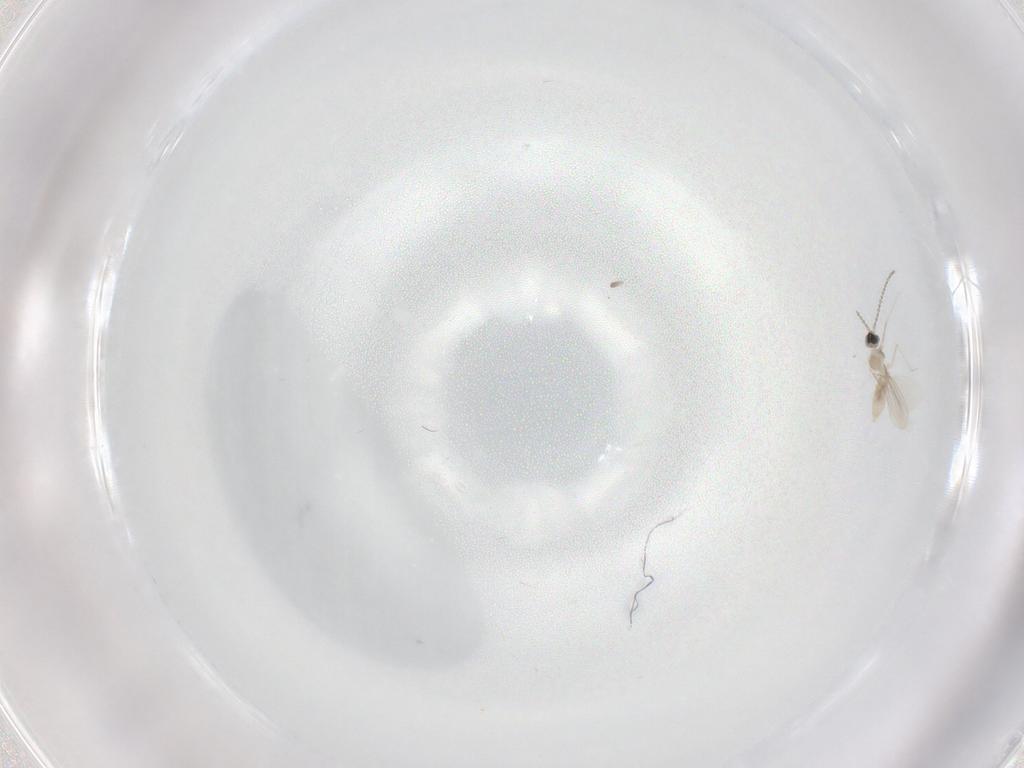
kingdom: Animalia
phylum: Arthropoda
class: Insecta
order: Diptera
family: Cecidomyiidae
